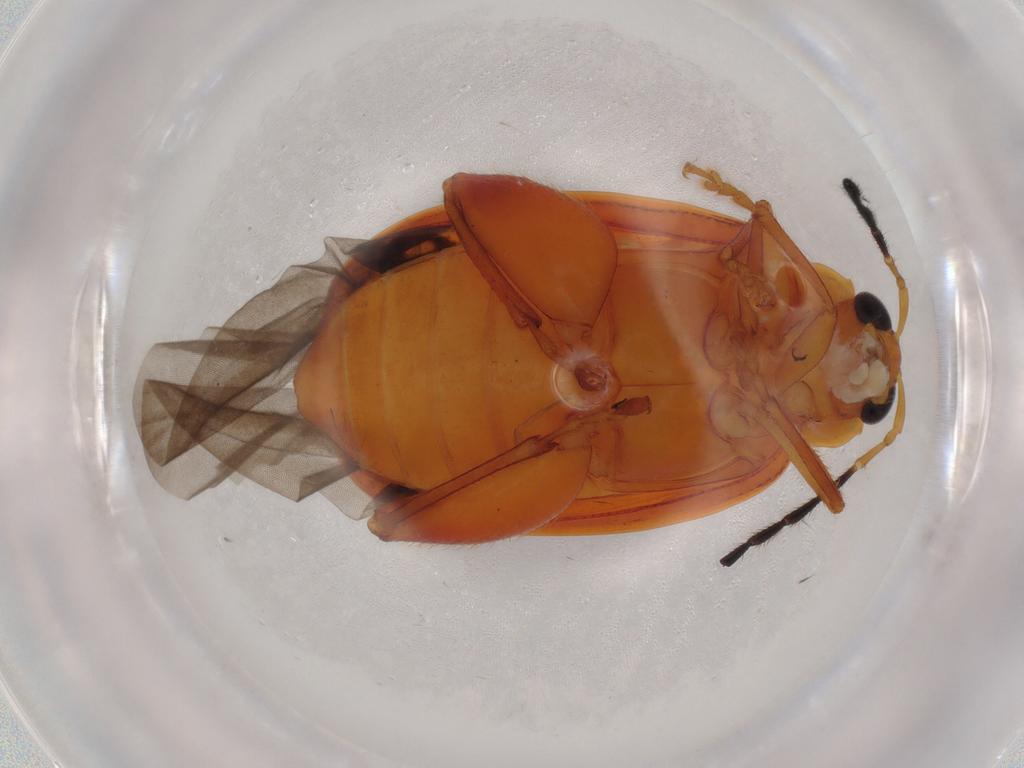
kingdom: Animalia
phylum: Arthropoda
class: Insecta
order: Coleoptera
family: Chrysomelidae
